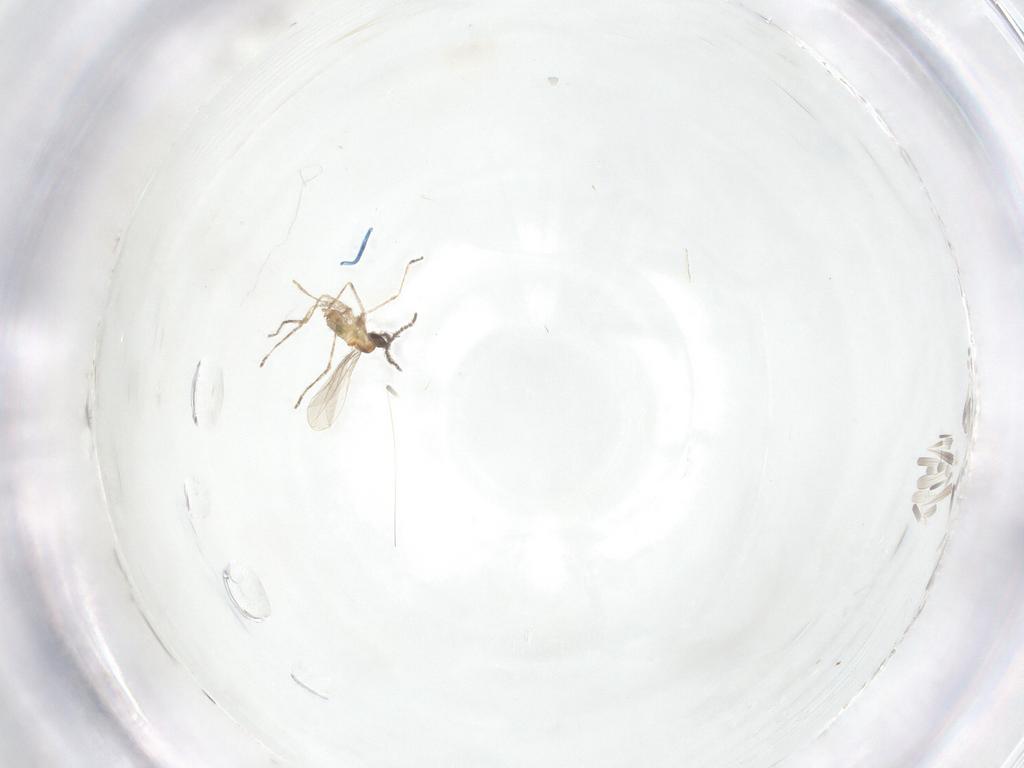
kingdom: Animalia
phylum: Arthropoda
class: Insecta
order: Diptera
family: Cecidomyiidae
